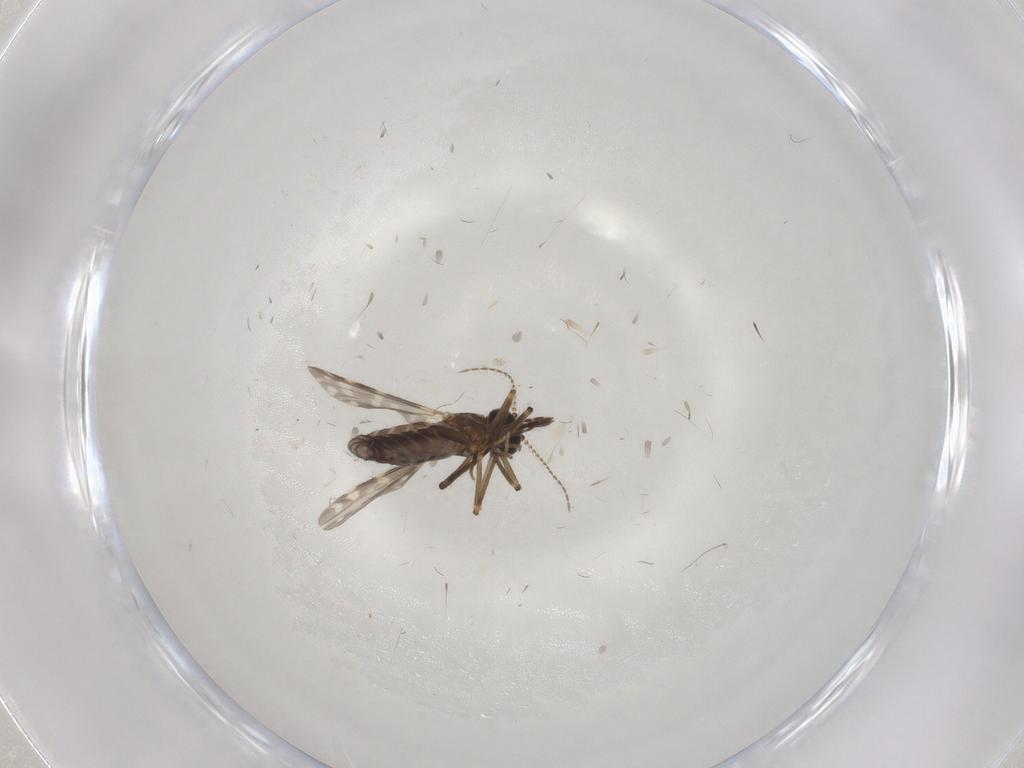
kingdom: Animalia
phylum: Arthropoda
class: Insecta
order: Diptera
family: Ceratopogonidae
